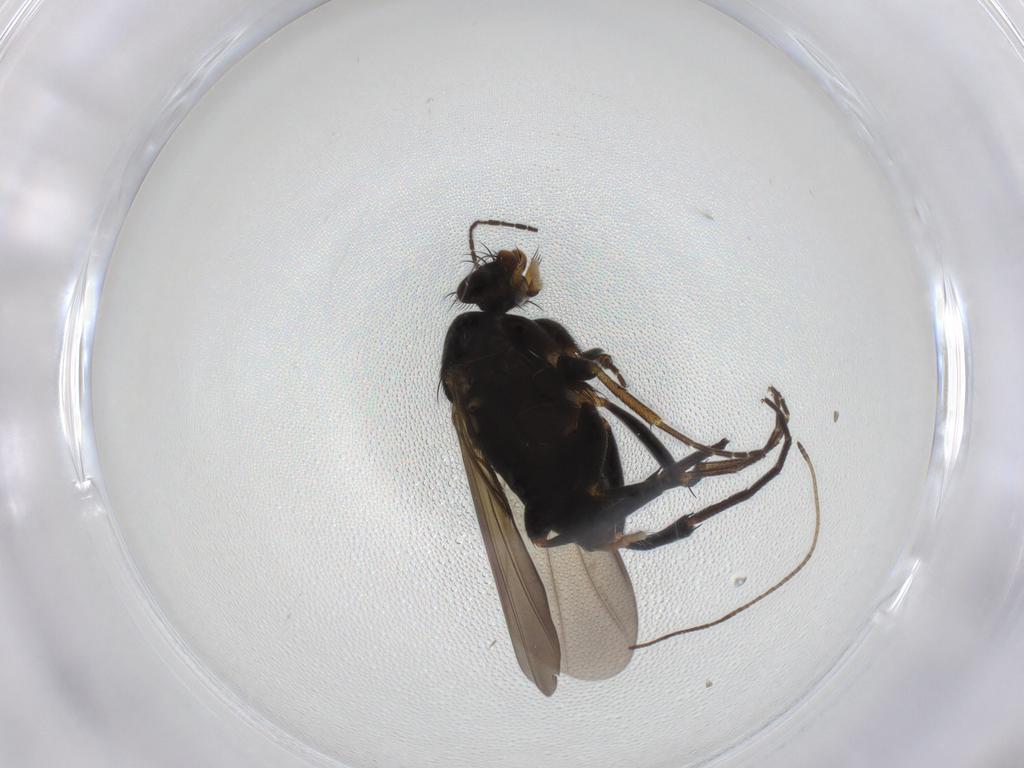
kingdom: Animalia
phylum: Arthropoda
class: Insecta
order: Diptera
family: Phoridae
